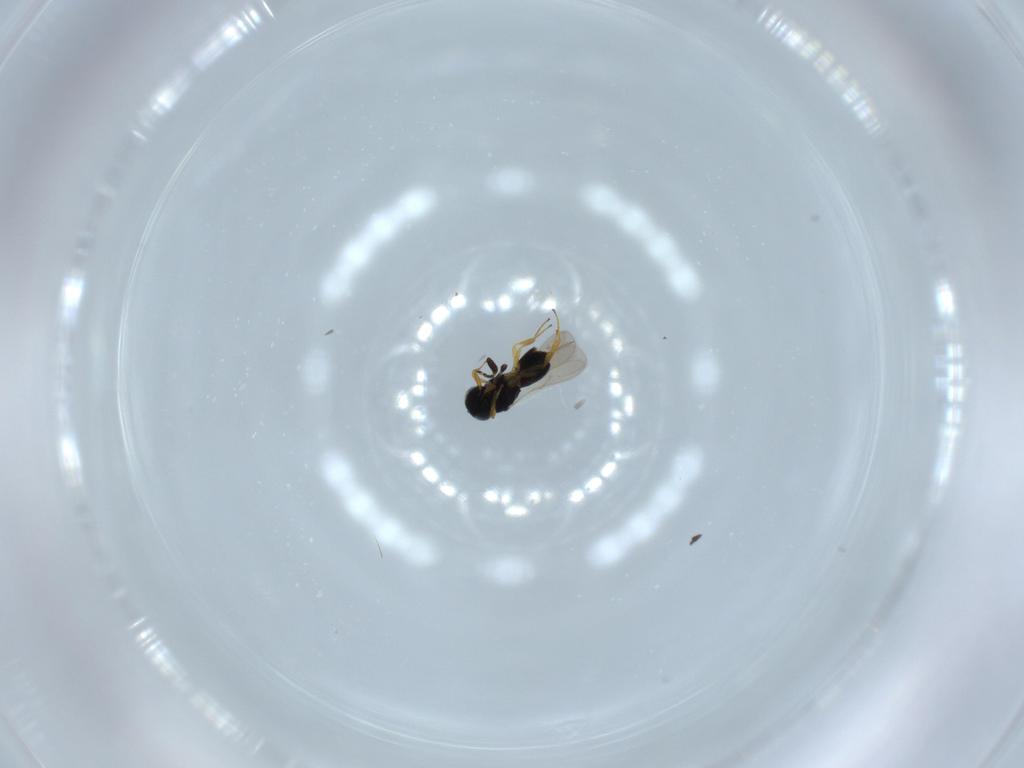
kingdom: Animalia
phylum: Arthropoda
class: Insecta
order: Hymenoptera
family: Scelionidae
